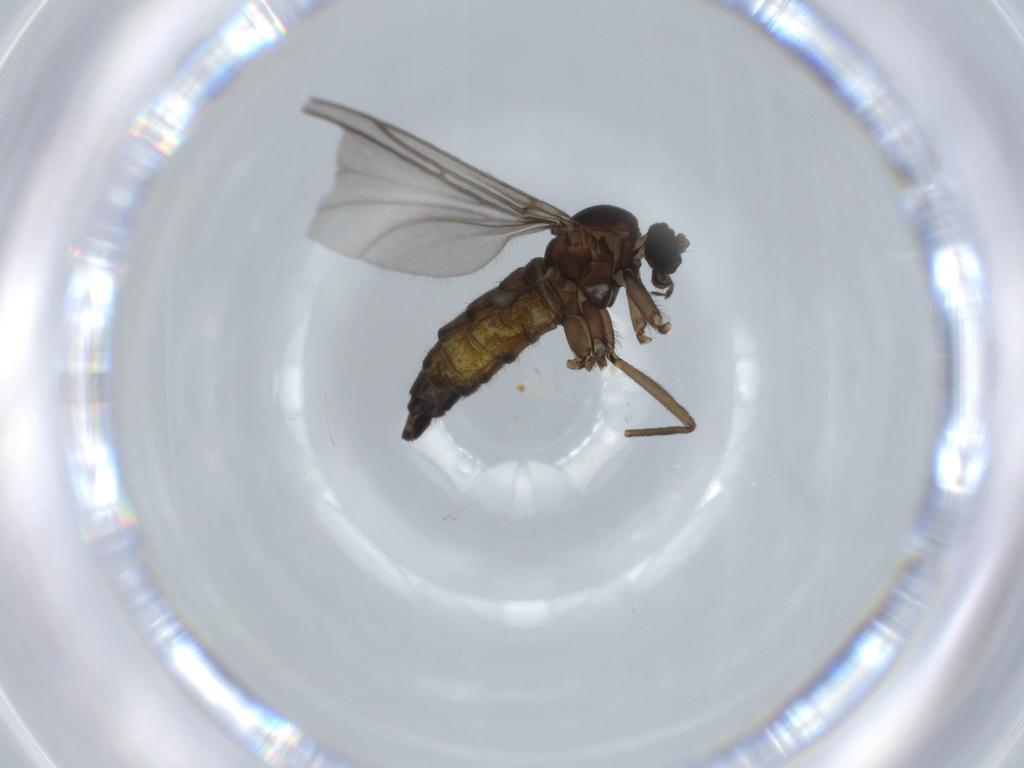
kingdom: Animalia
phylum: Arthropoda
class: Insecta
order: Diptera
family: Sciaridae
